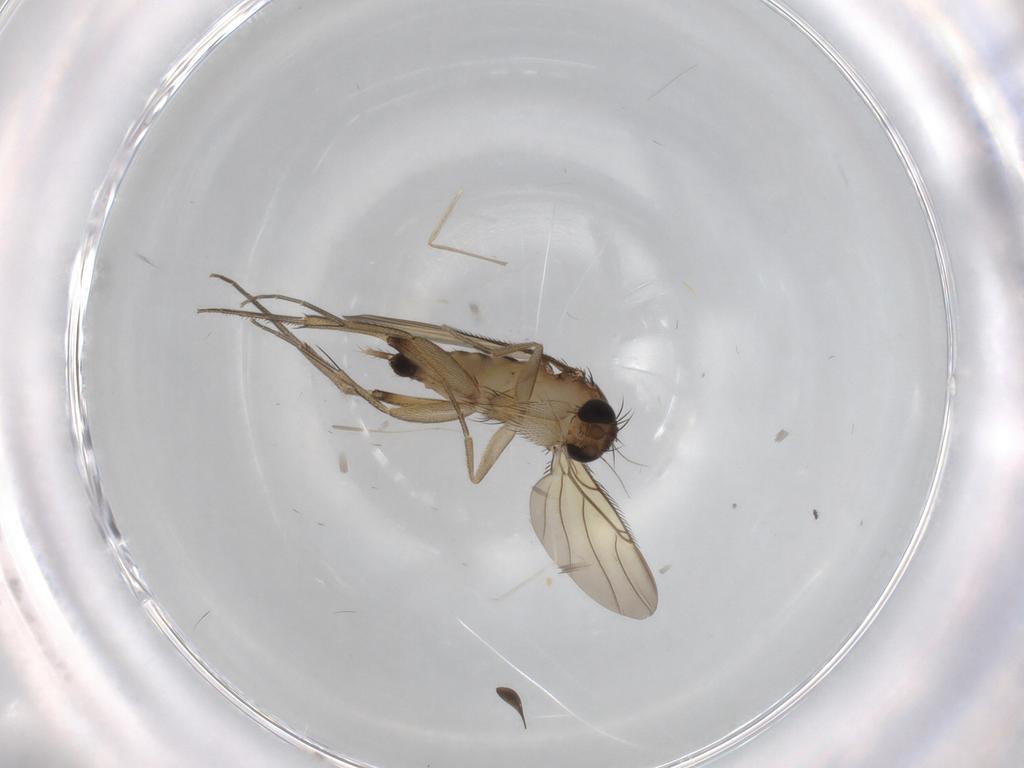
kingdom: Animalia
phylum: Arthropoda
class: Insecta
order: Diptera
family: Cecidomyiidae
